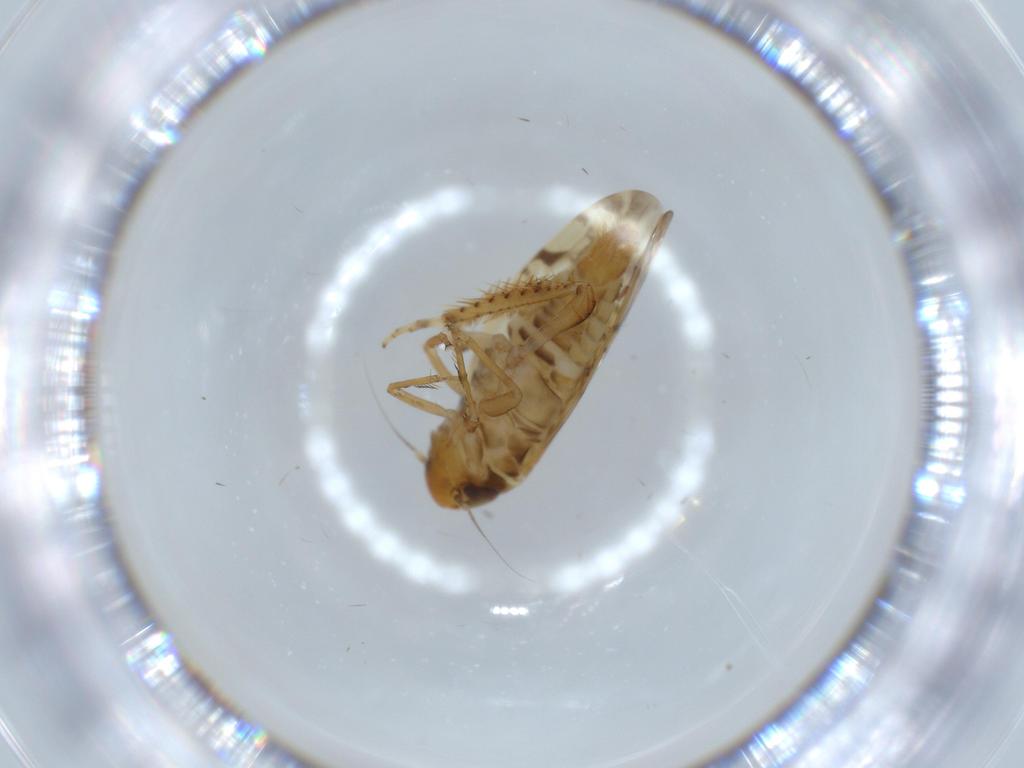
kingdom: Animalia
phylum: Arthropoda
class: Insecta
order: Hemiptera
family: Cicadellidae
